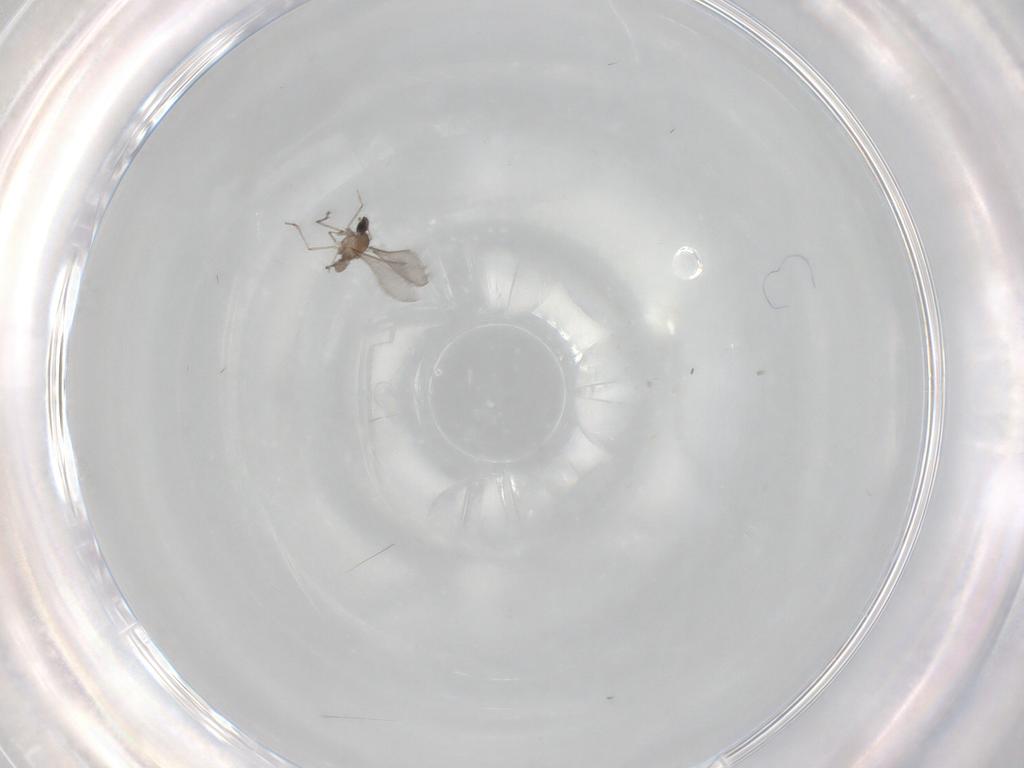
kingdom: Animalia
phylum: Arthropoda
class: Insecta
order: Diptera
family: Cecidomyiidae
